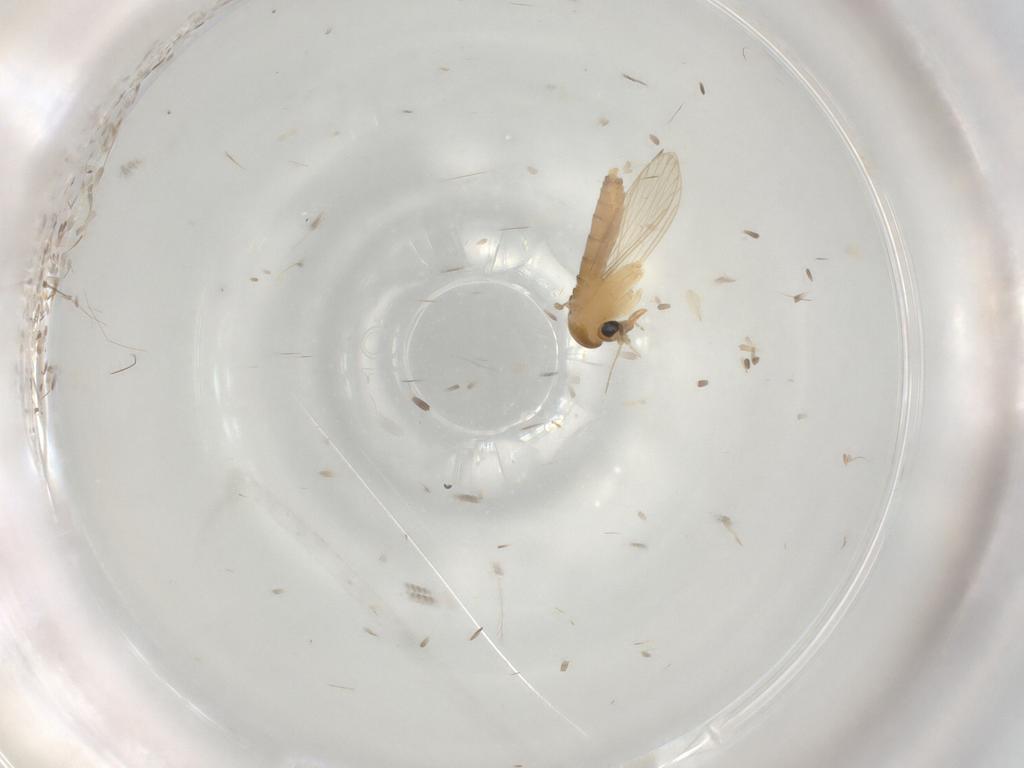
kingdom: Animalia
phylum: Arthropoda
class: Insecta
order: Diptera
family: Psychodidae
